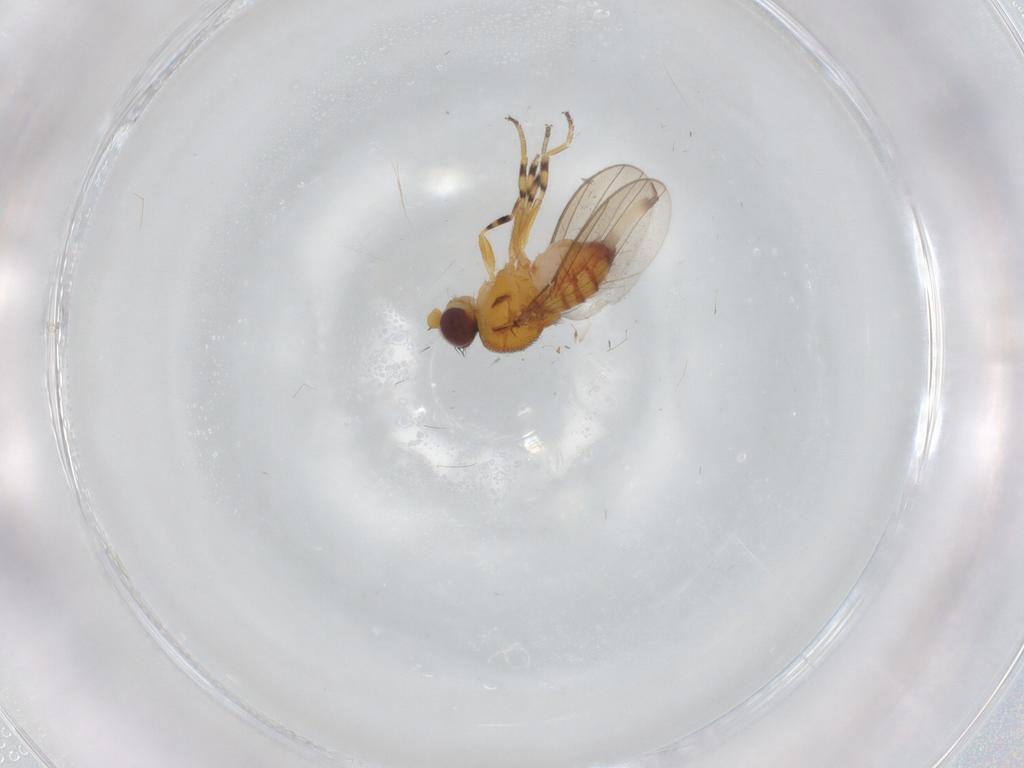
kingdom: Animalia
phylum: Arthropoda
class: Insecta
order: Diptera
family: Chloropidae
